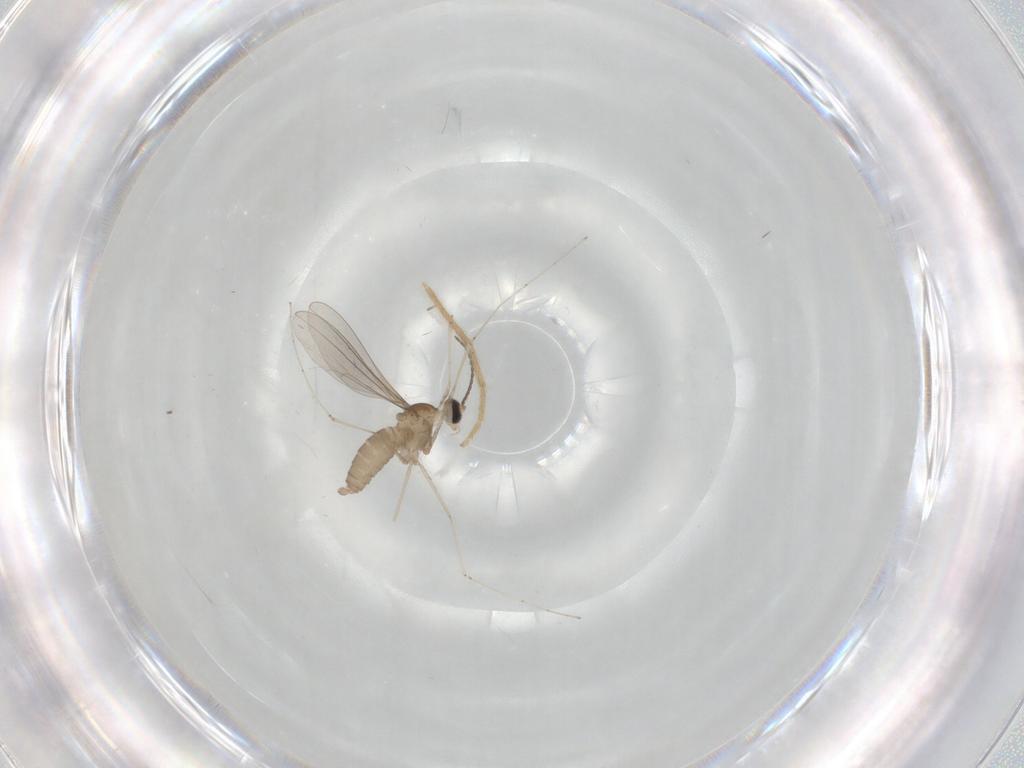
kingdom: Animalia
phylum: Arthropoda
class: Insecta
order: Diptera
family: Cecidomyiidae
